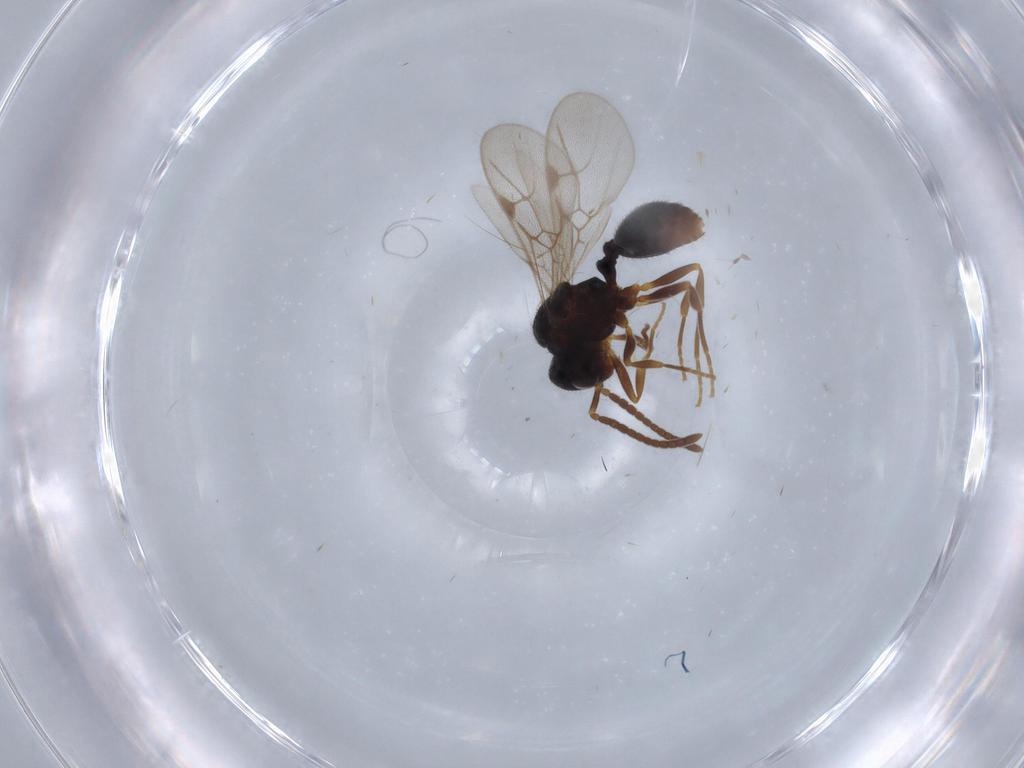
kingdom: Animalia
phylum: Arthropoda
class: Insecta
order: Hymenoptera
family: Formicidae
